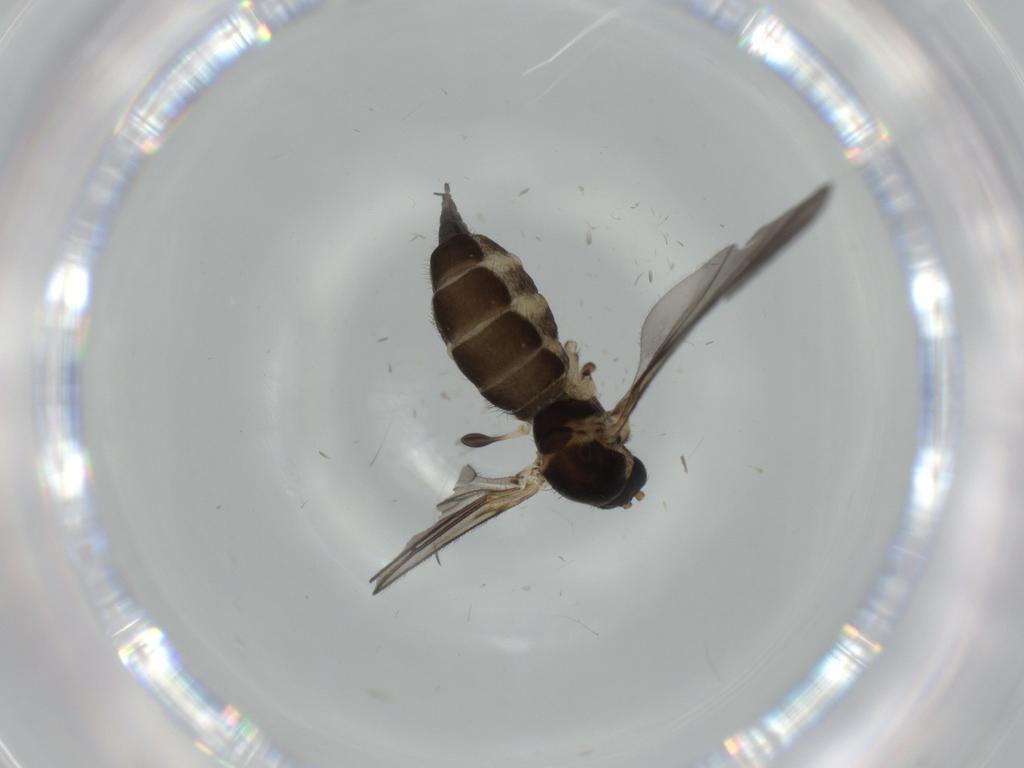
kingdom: Animalia
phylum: Arthropoda
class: Insecta
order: Diptera
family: Sciaridae
